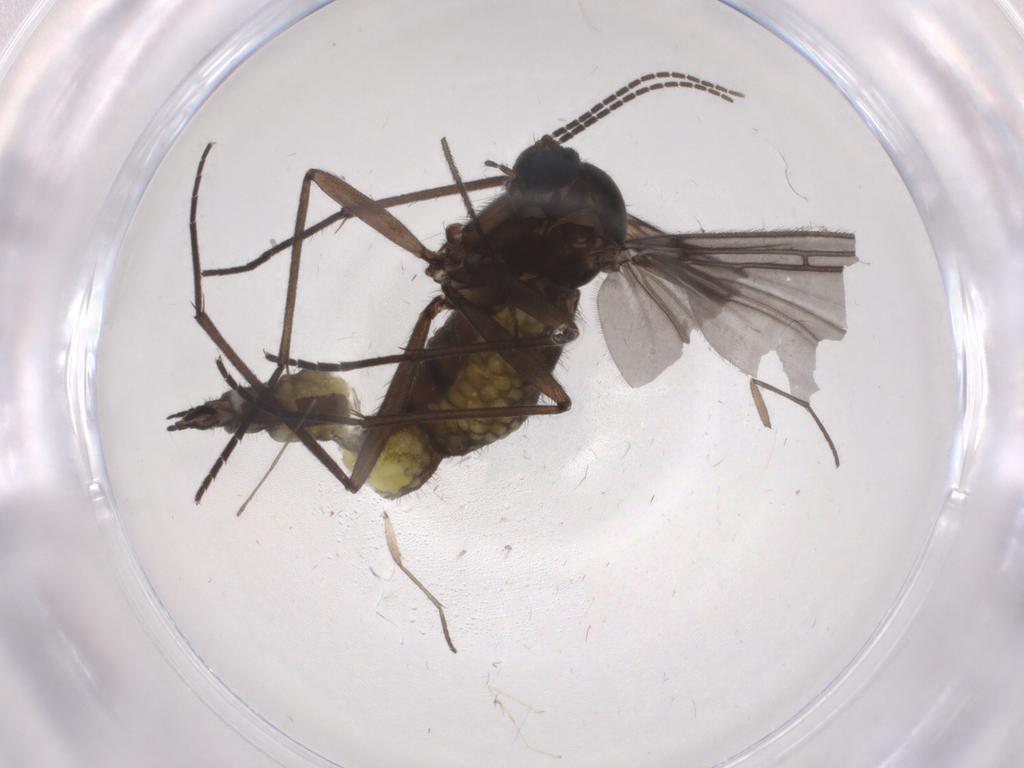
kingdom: Animalia
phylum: Arthropoda
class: Insecta
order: Diptera
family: Sciaridae
